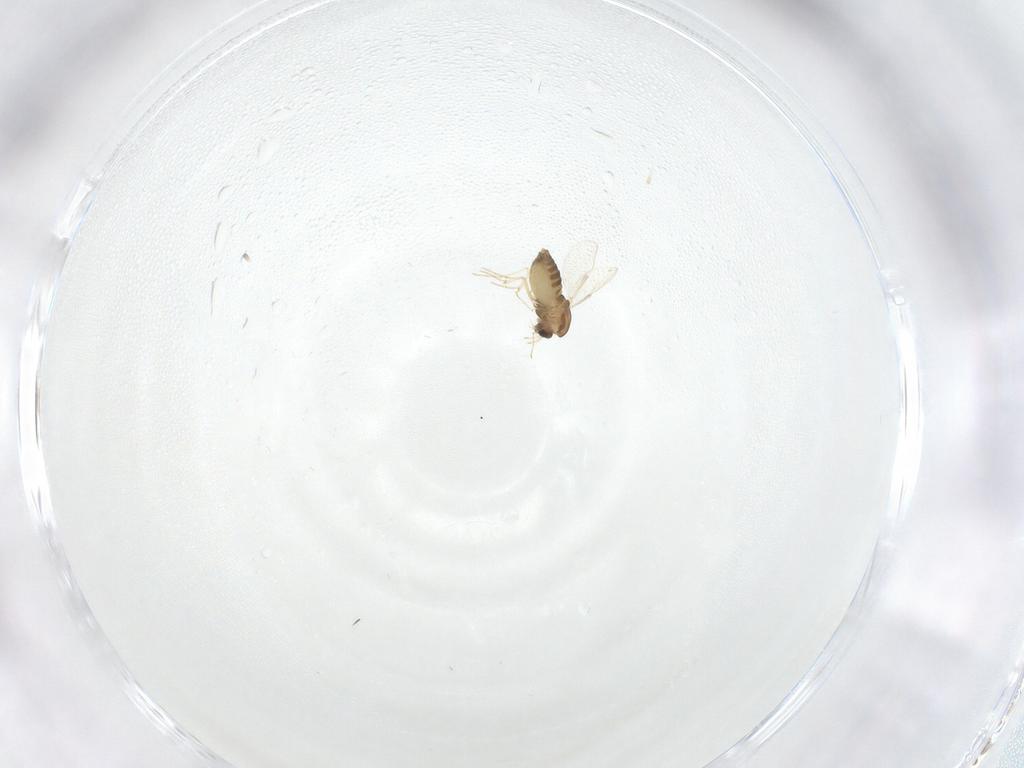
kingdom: Animalia
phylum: Arthropoda
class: Insecta
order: Diptera
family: Chironomidae
